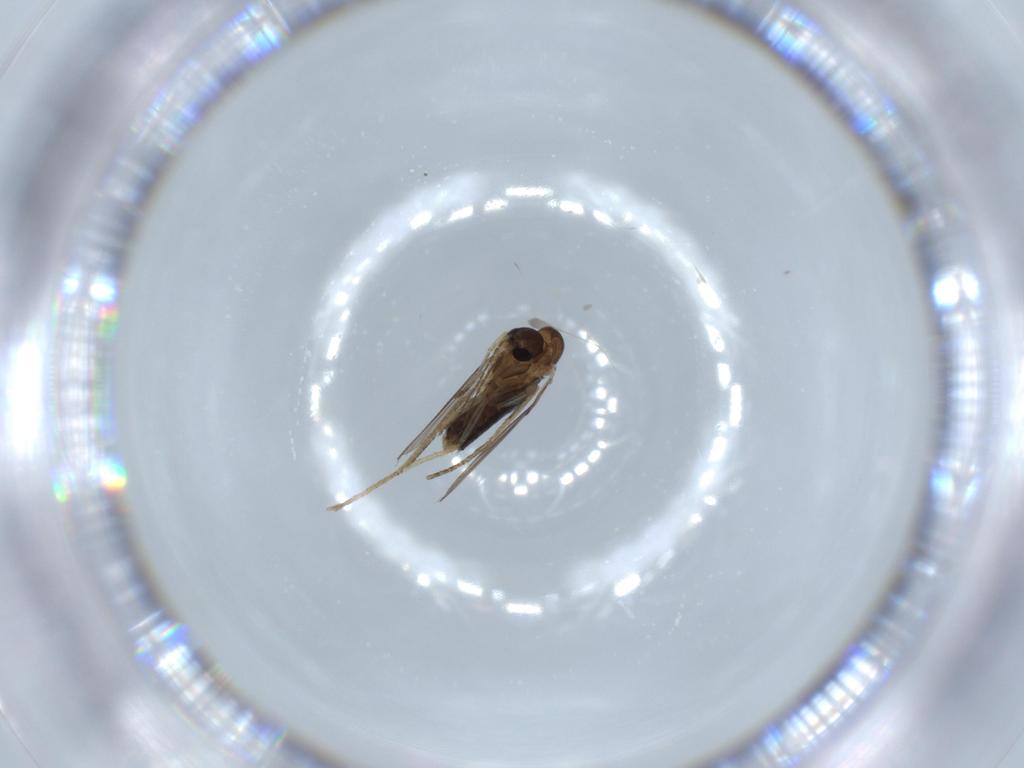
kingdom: Animalia
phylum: Arthropoda
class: Insecta
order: Diptera
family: Psychodidae
